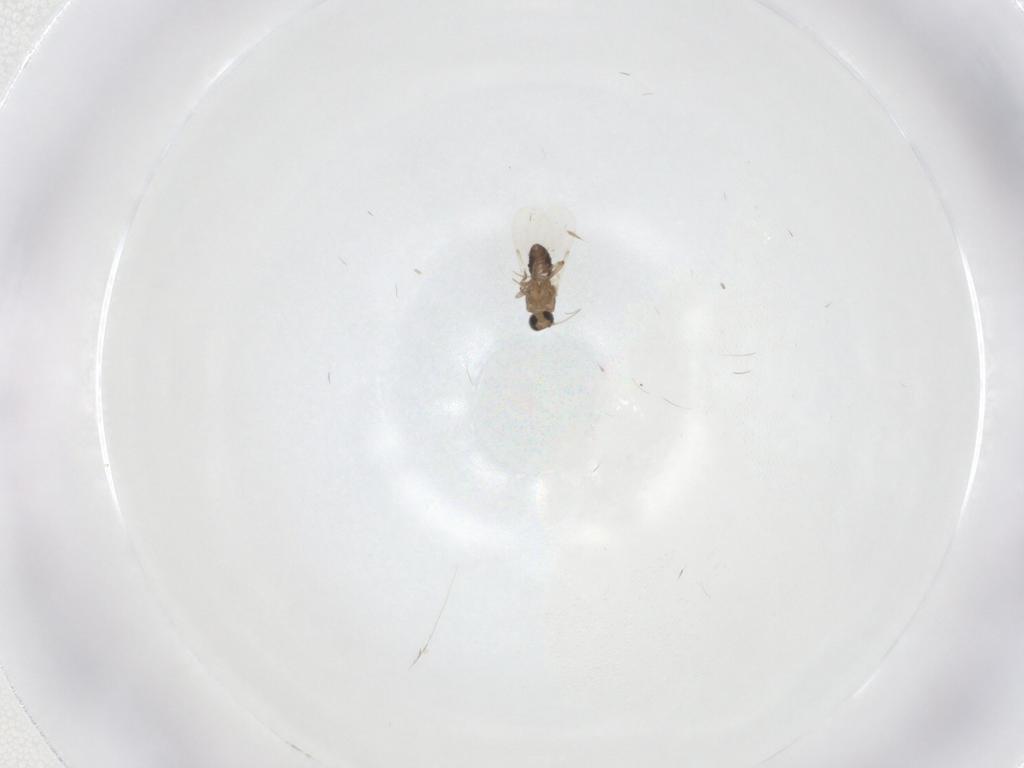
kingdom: Animalia
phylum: Arthropoda
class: Insecta
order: Diptera
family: Ceratopogonidae
